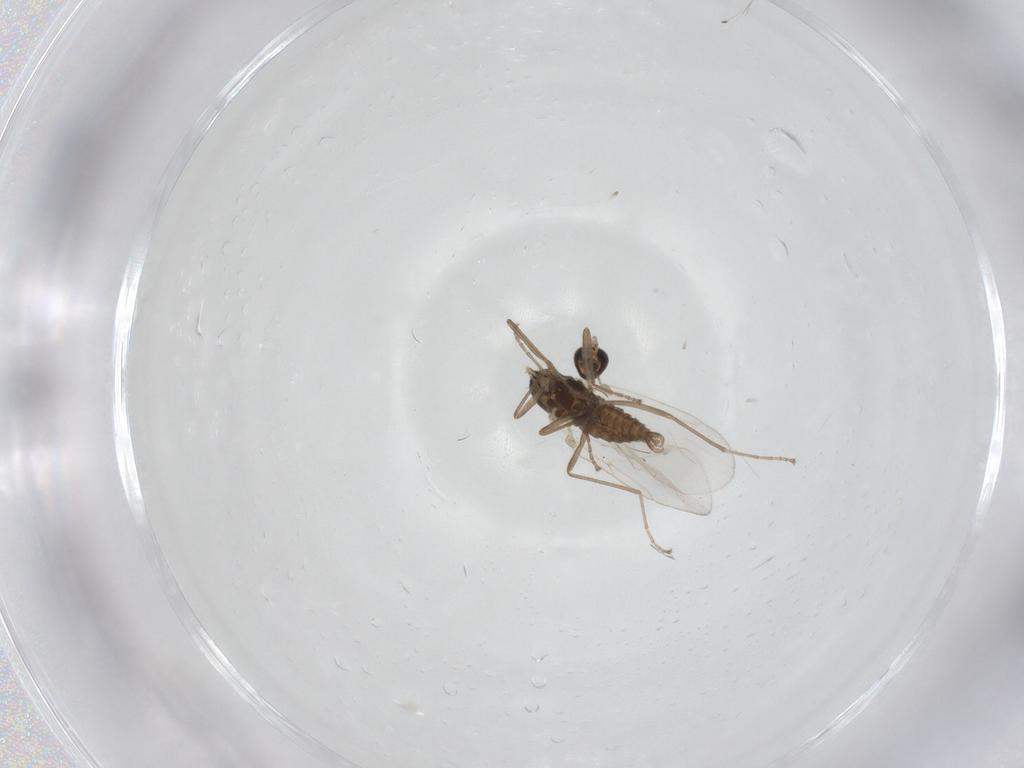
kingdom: Animalia
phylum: Arthropoda
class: Insecta
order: Diptera
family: Cecidomyiidae
